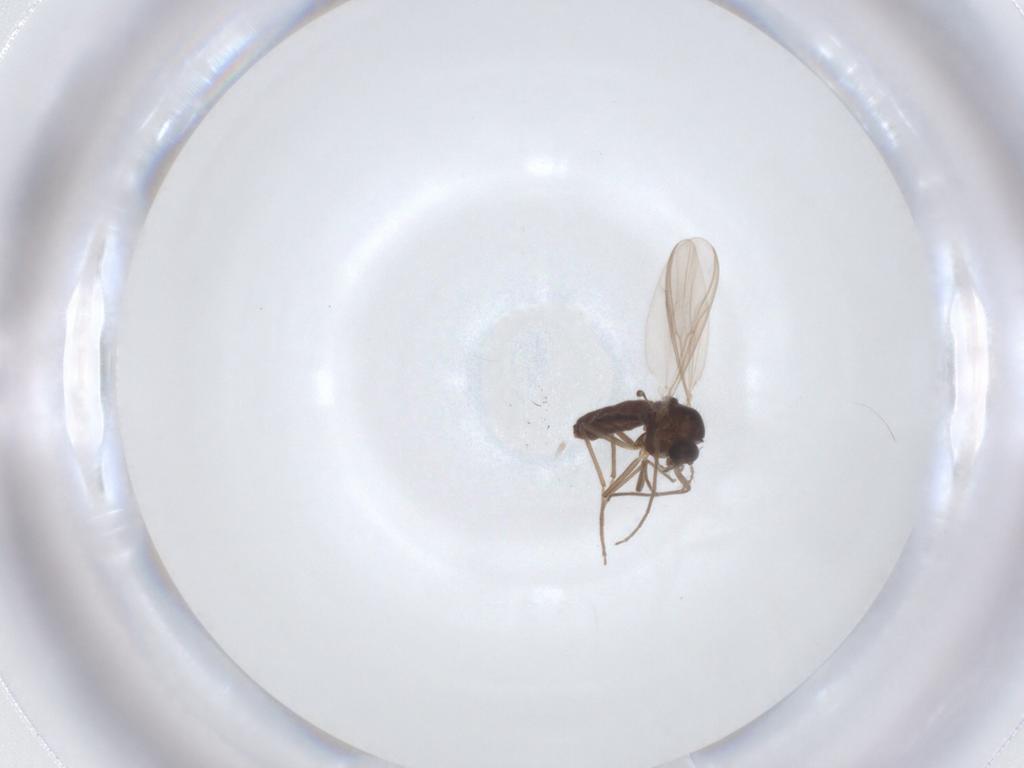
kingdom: Animalia
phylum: Arthropoda
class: Insecta
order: Diptera
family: Chironomidae
